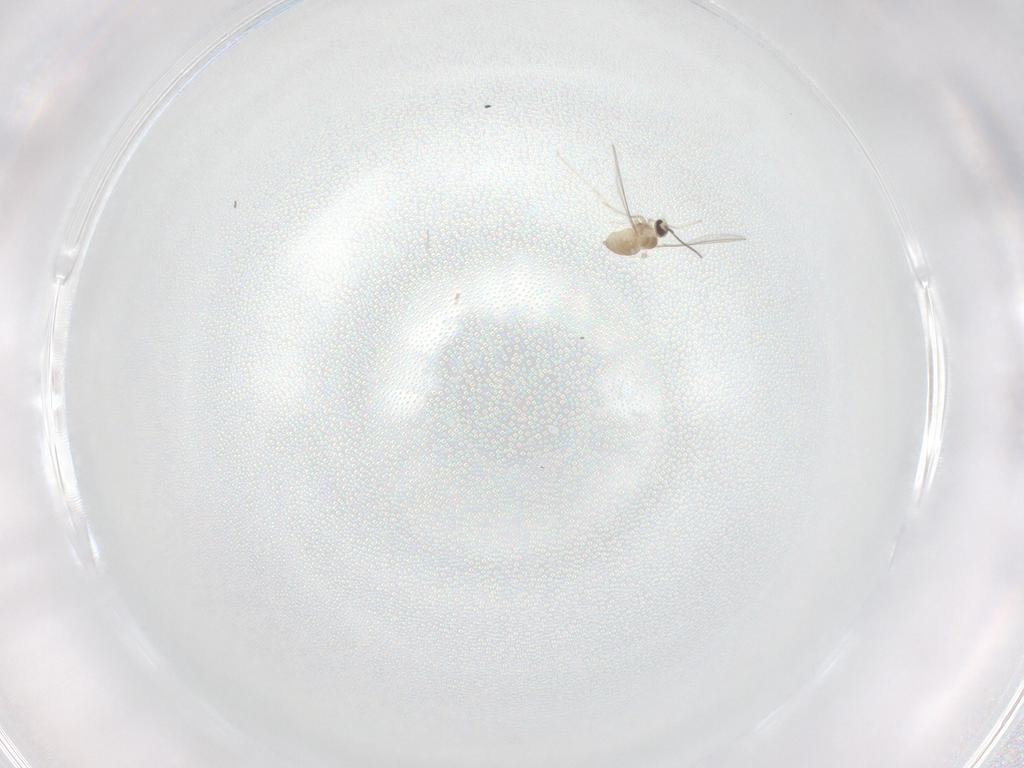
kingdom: Animalia
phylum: Arthropoda
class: Insecta
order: Diptera
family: Cecidomyiidae
